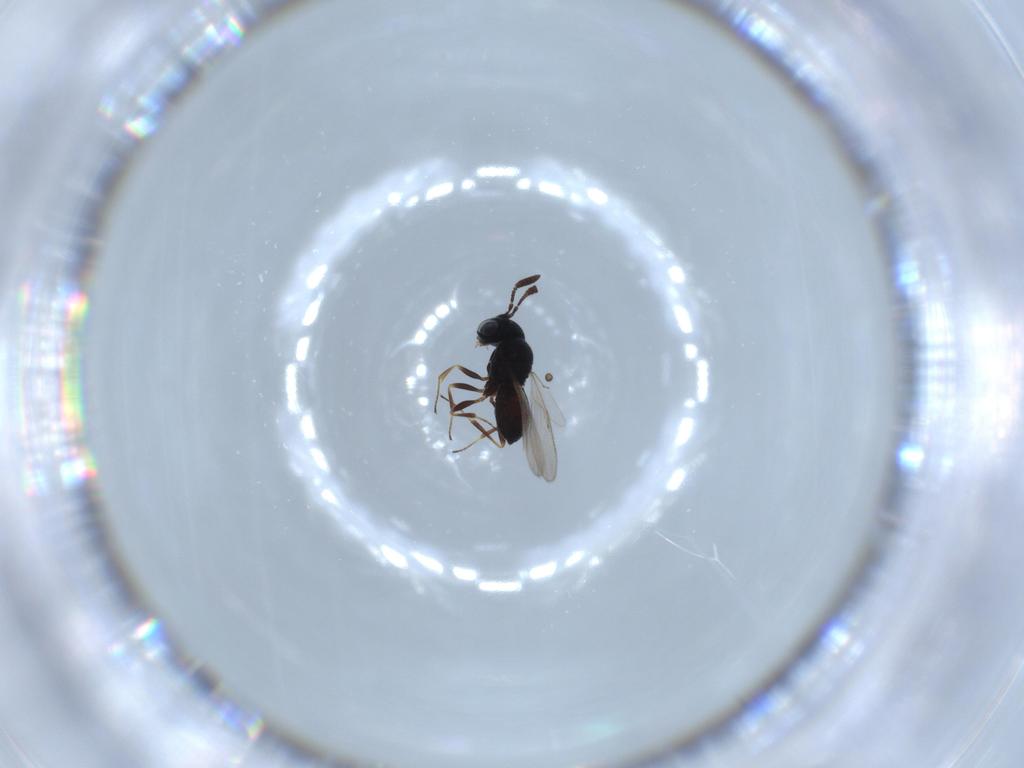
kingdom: Animalia
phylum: Arthropoda
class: Insecta
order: Hymenoptera
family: Scelionidae
